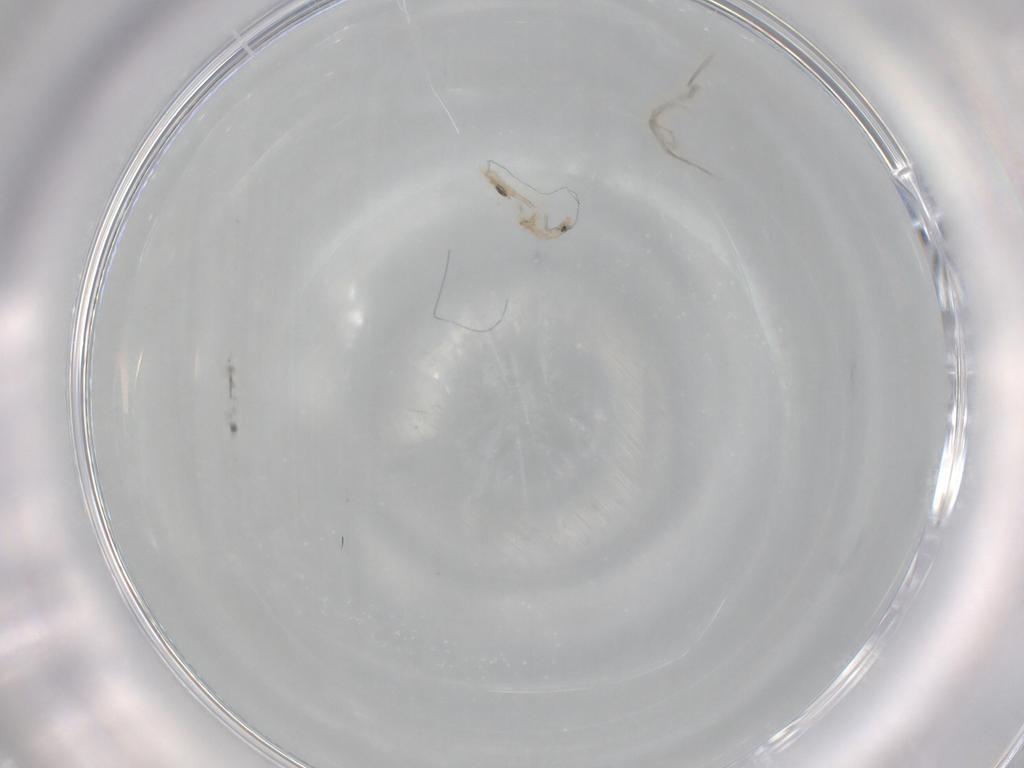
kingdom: Animalia
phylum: Arthropoda
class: Collembola
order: Entomobryomorpha
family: Entomobryidae
